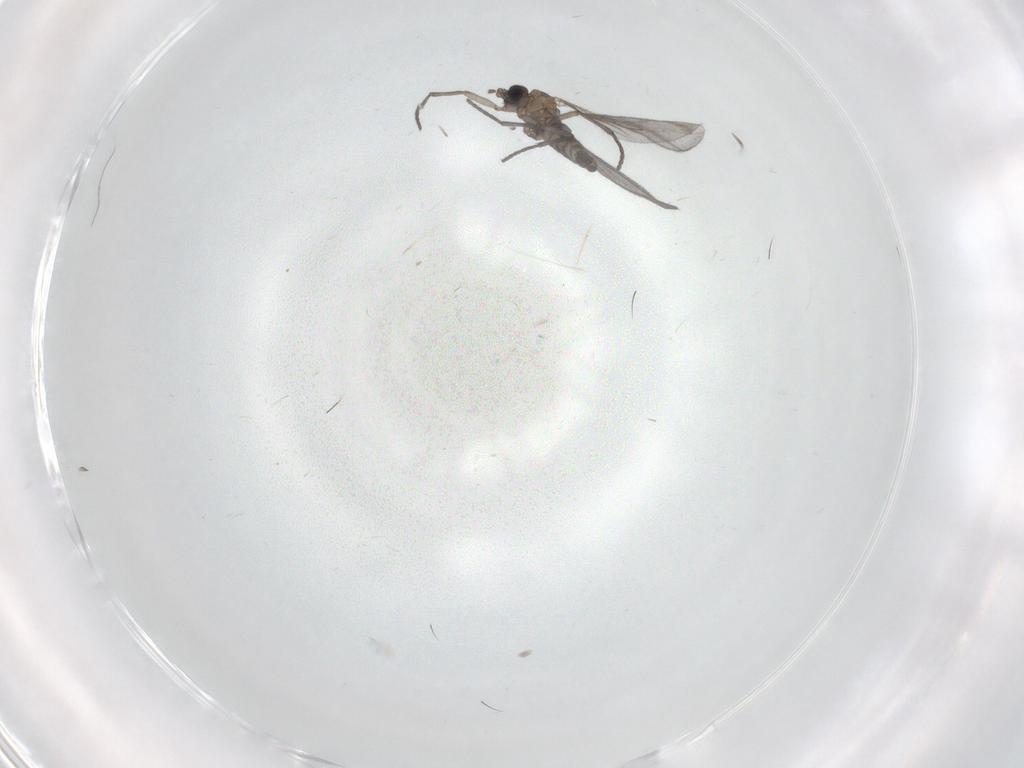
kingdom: Animalia
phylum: Arthropoda
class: Insecta
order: Diptera
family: Sciaridae
